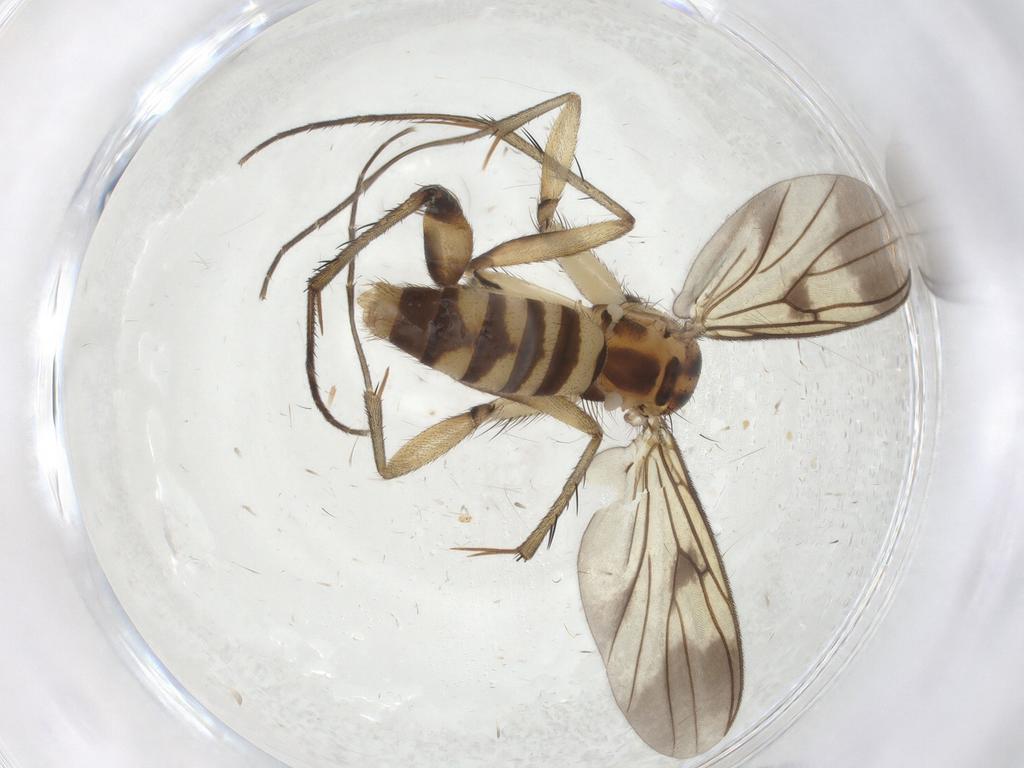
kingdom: Animalia
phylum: Arthropoda
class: Insecta
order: Diptera
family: Mycetophilidae
